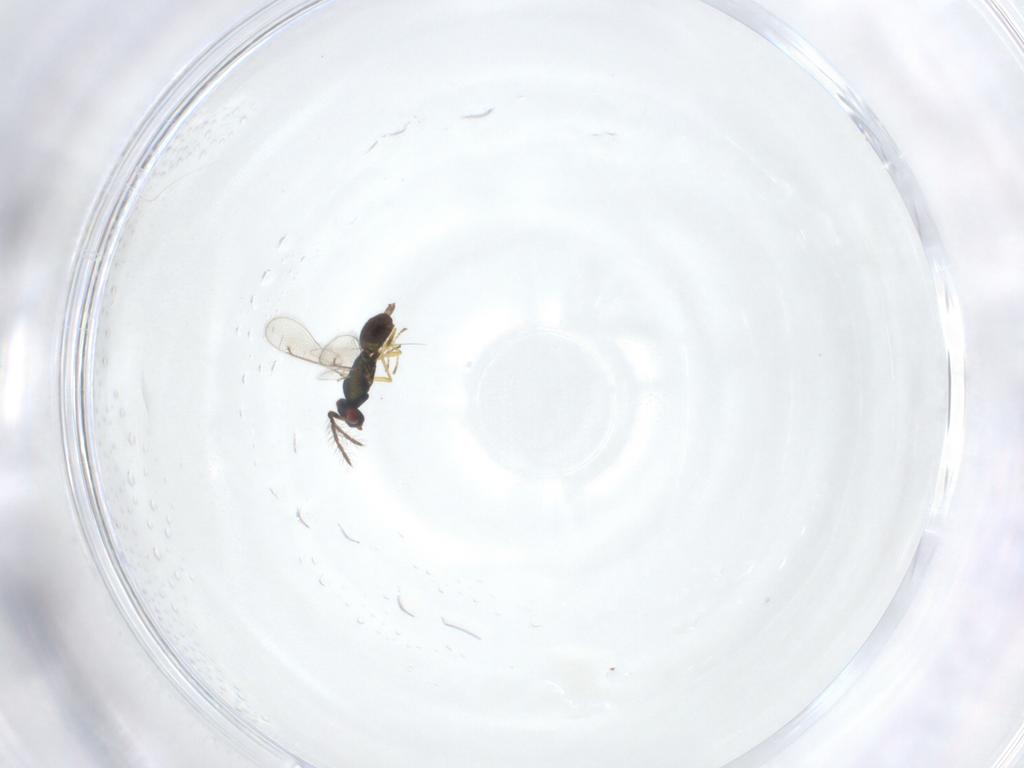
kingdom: Animalia
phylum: Arthropoda
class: Insecta
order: Hymenoptera
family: Eulophidae
